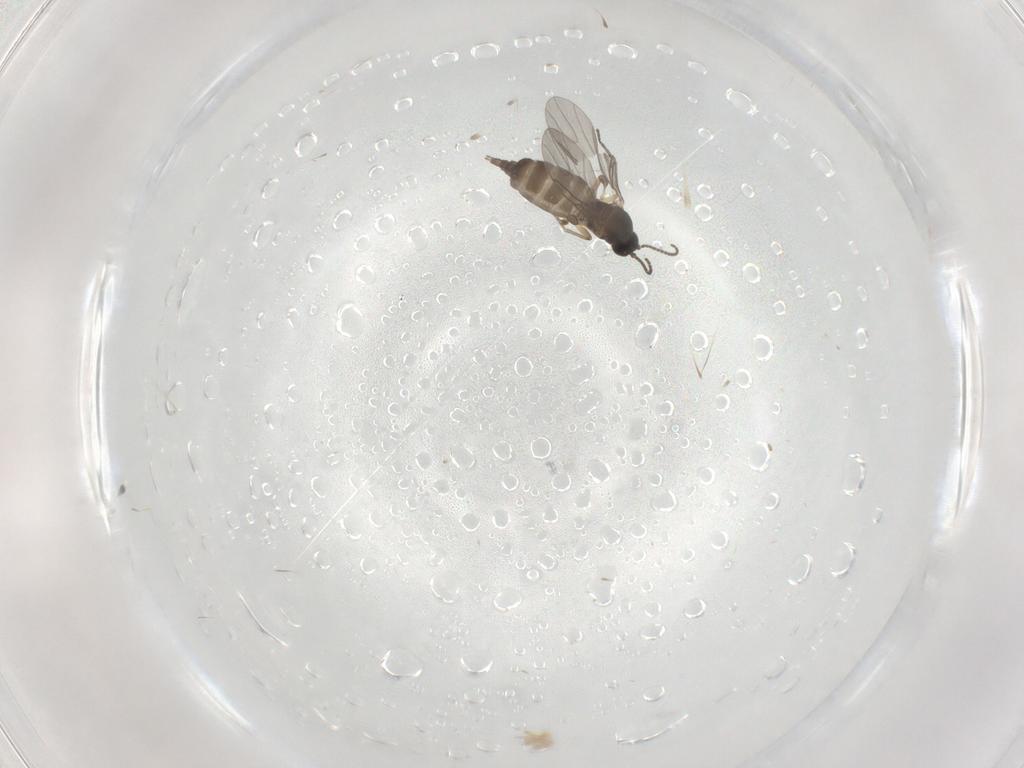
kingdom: Animalia
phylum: Arthropoda
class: Insecta
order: Diptera
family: Sciaridae
